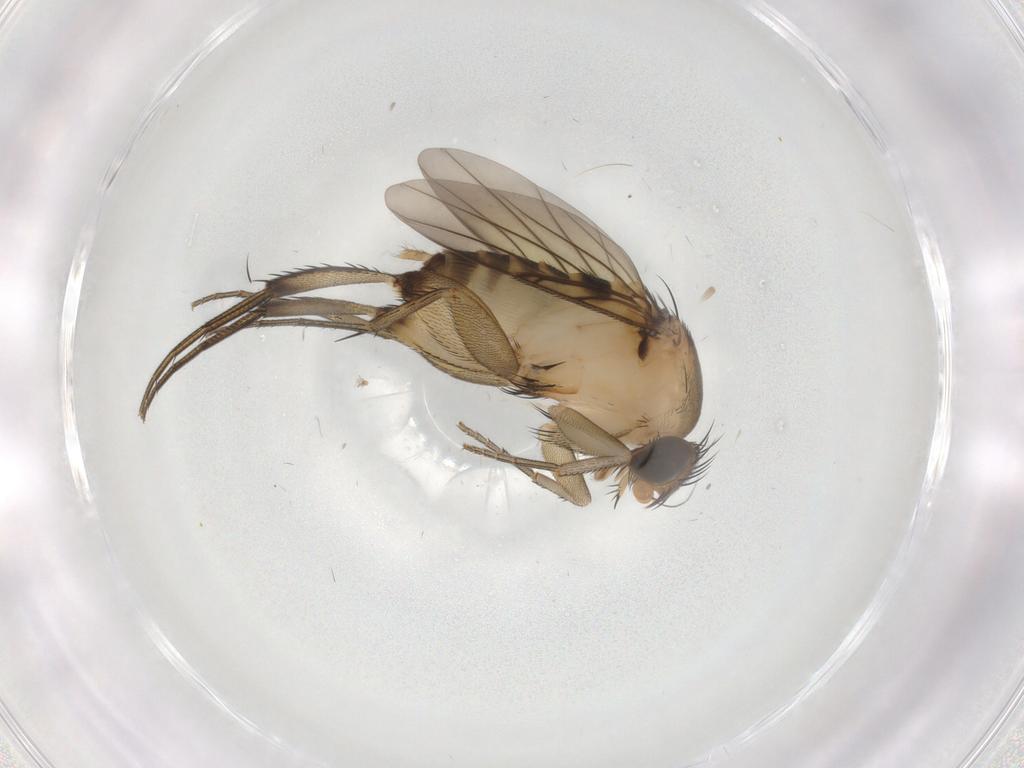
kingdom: Animalia
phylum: Arthropoda
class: Insecta
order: Diptera
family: Phoridae
